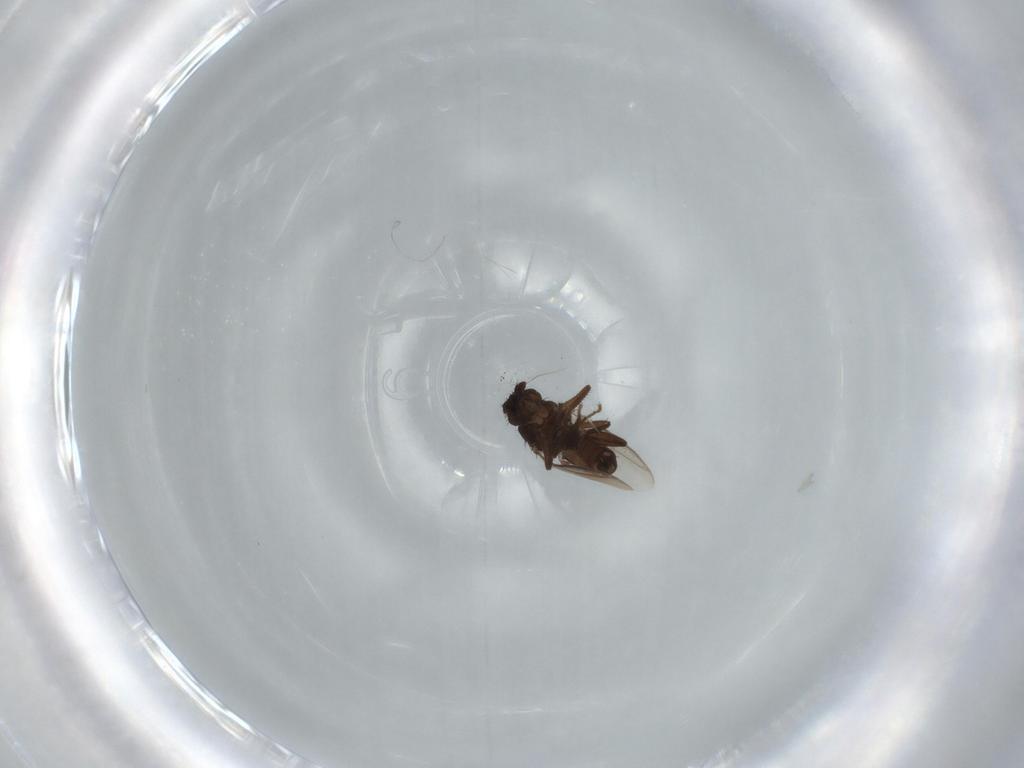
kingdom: Animalia
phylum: Arthropoda
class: Insecta
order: Diptera
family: Sphaeroceridae
